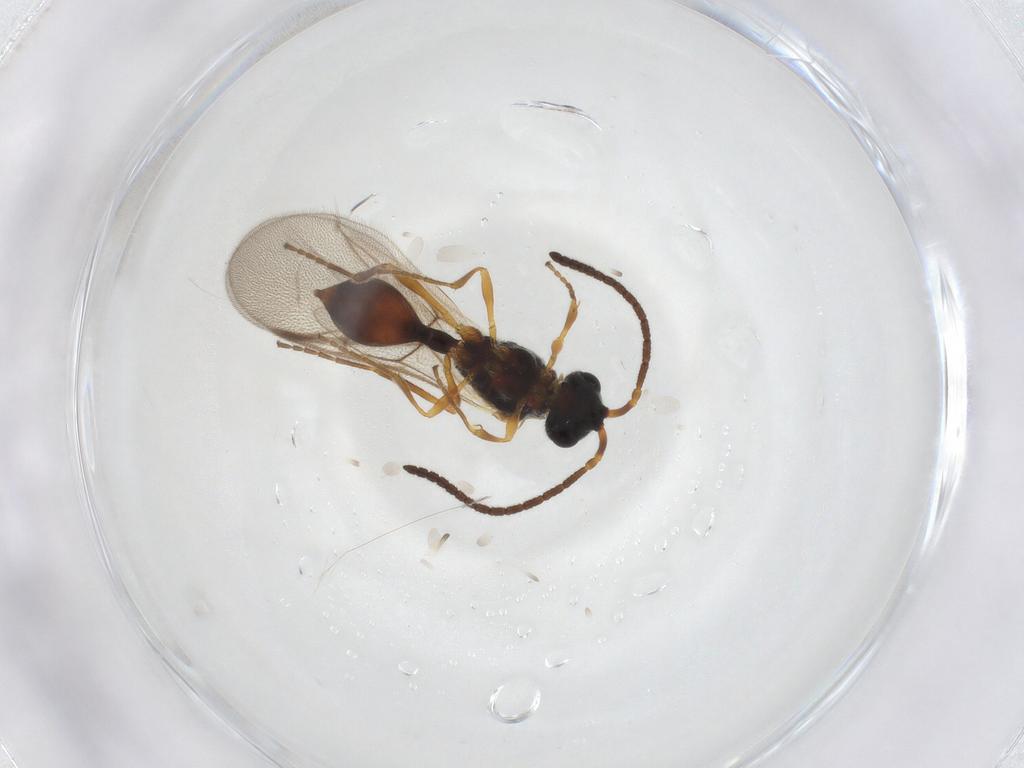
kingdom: Animalia
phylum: Arthropoda
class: Insecta
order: Hymenoptera
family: Diapriidae
